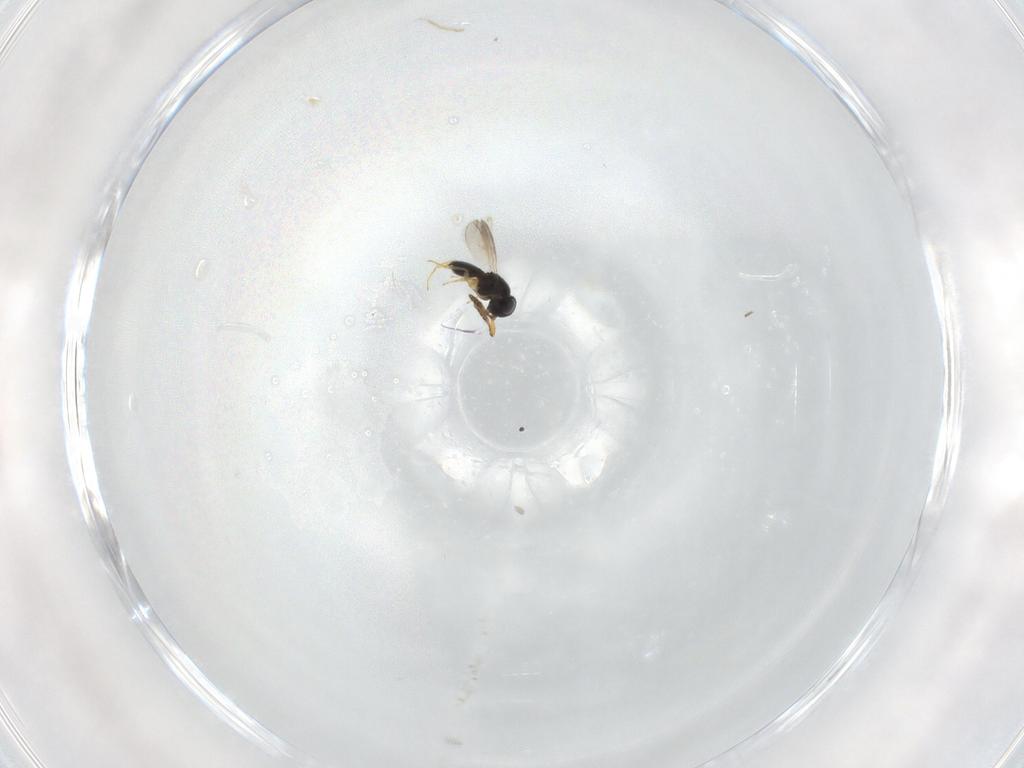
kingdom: Animalia
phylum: Arthropoda
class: Insecta
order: Hymenoptera
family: Scelionidae
